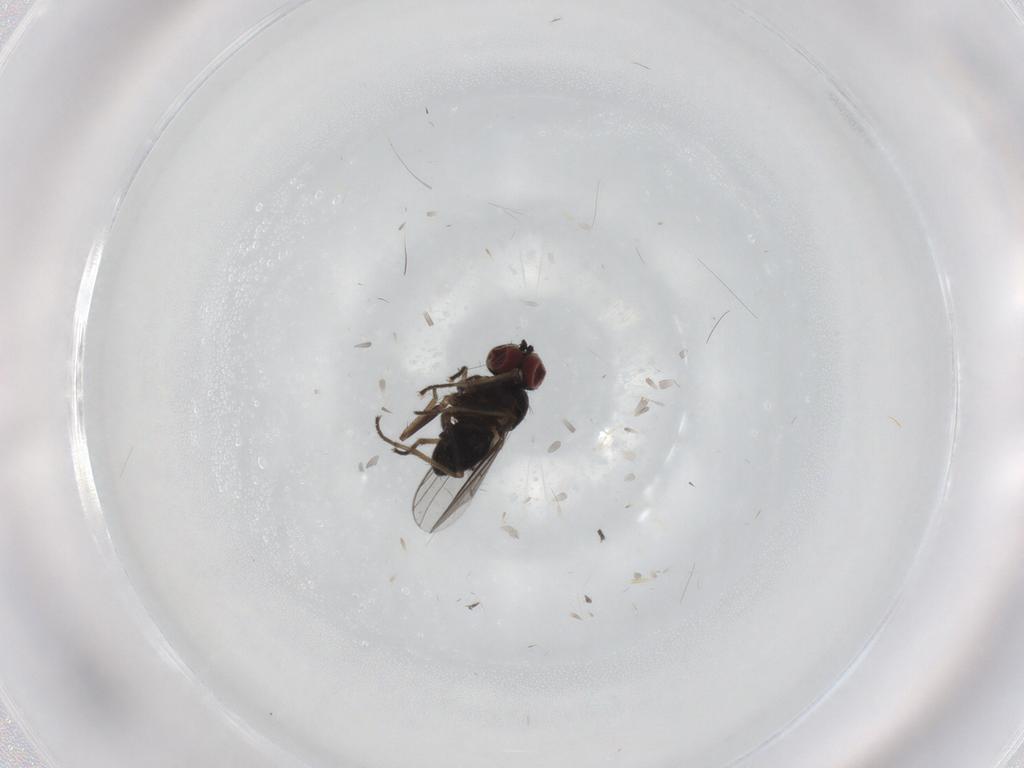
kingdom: Animalia
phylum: Arthropoda
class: Insecta
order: Diptera
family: Dolichopodidae
